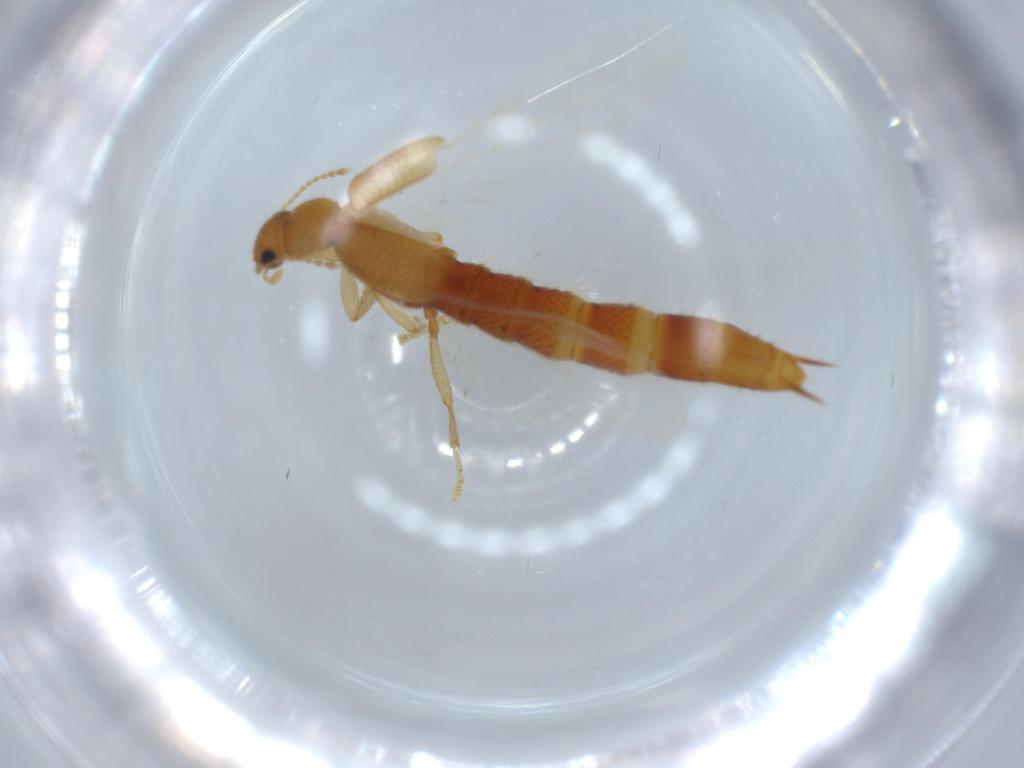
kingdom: Animalia
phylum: Arthropoda
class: Insecta
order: Coleoptera
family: Staphylinidae
